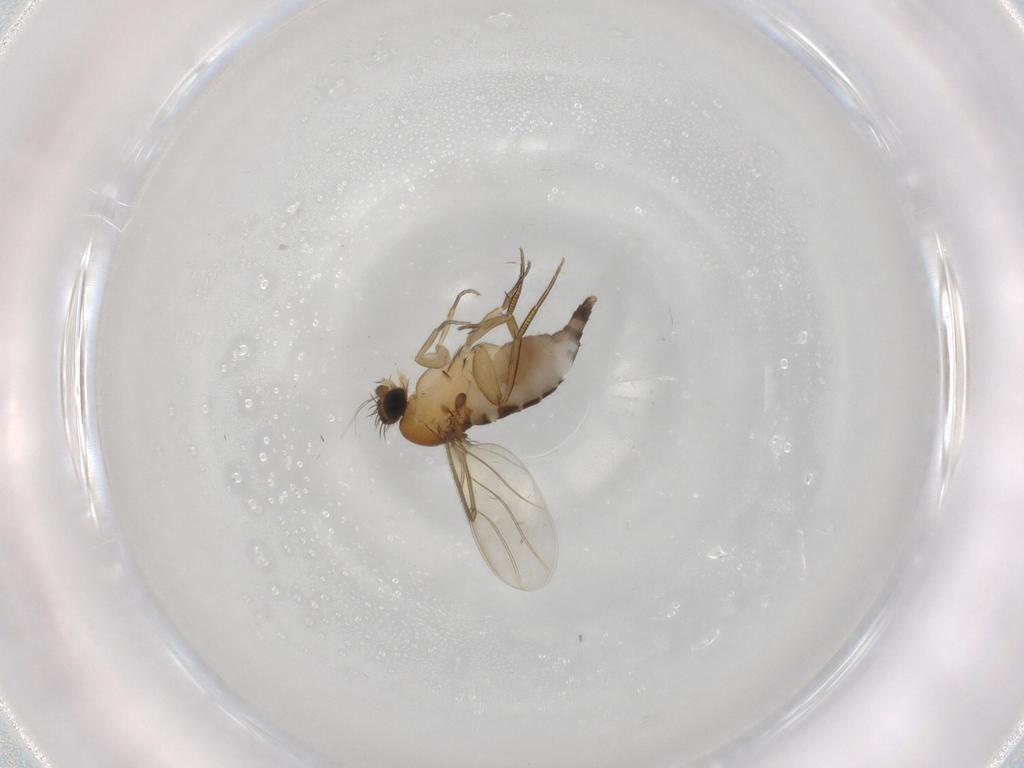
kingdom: Animalia
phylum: Arthropoda
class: Insecta
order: Diptera
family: Phoridae
